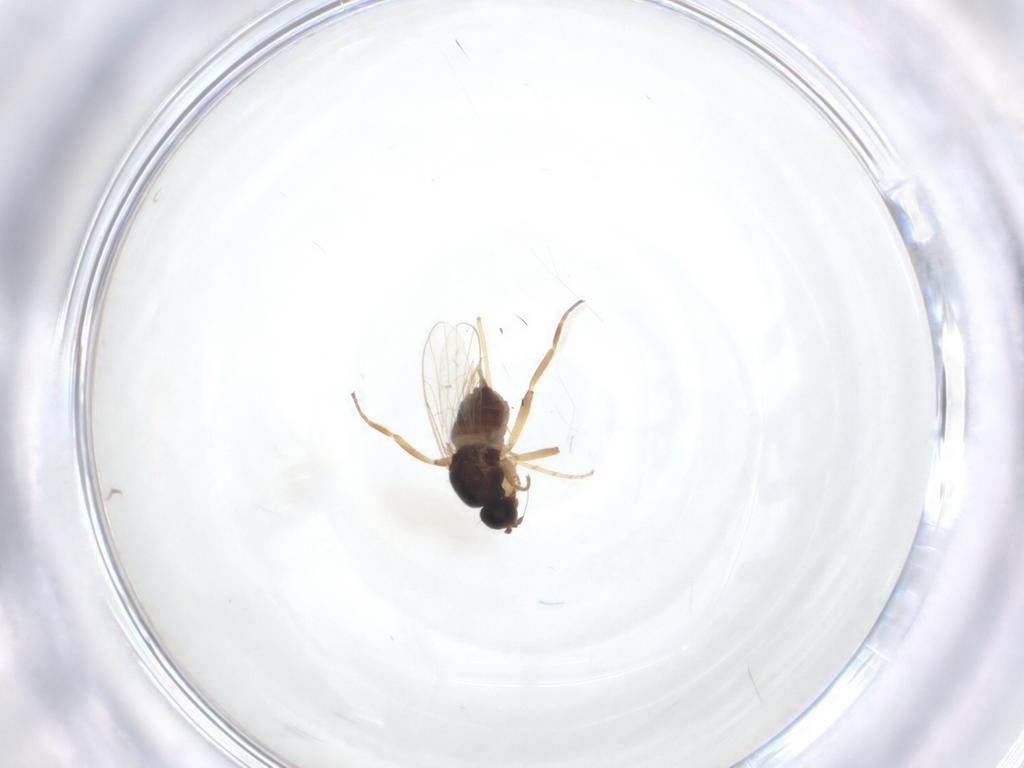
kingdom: Animalia
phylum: Arthropoda
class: Insecta
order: Diptera
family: Hybotidae
